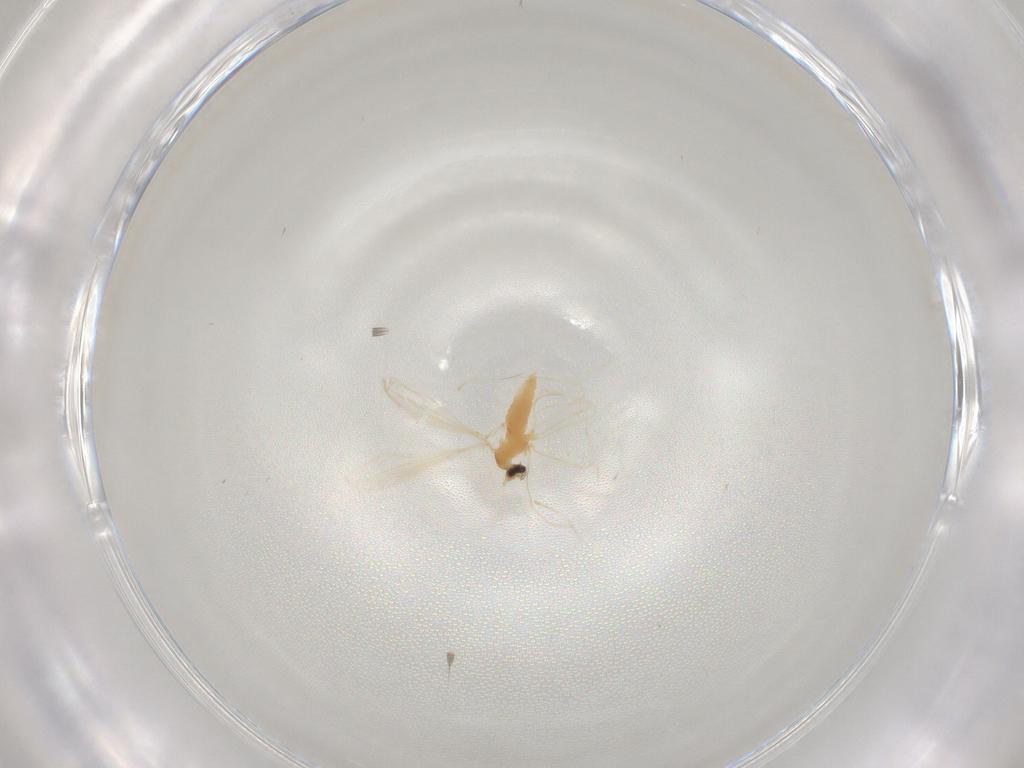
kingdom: Animalia
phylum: Arthropoda
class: Insecta
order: Diptera
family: Cecidomyiidae
